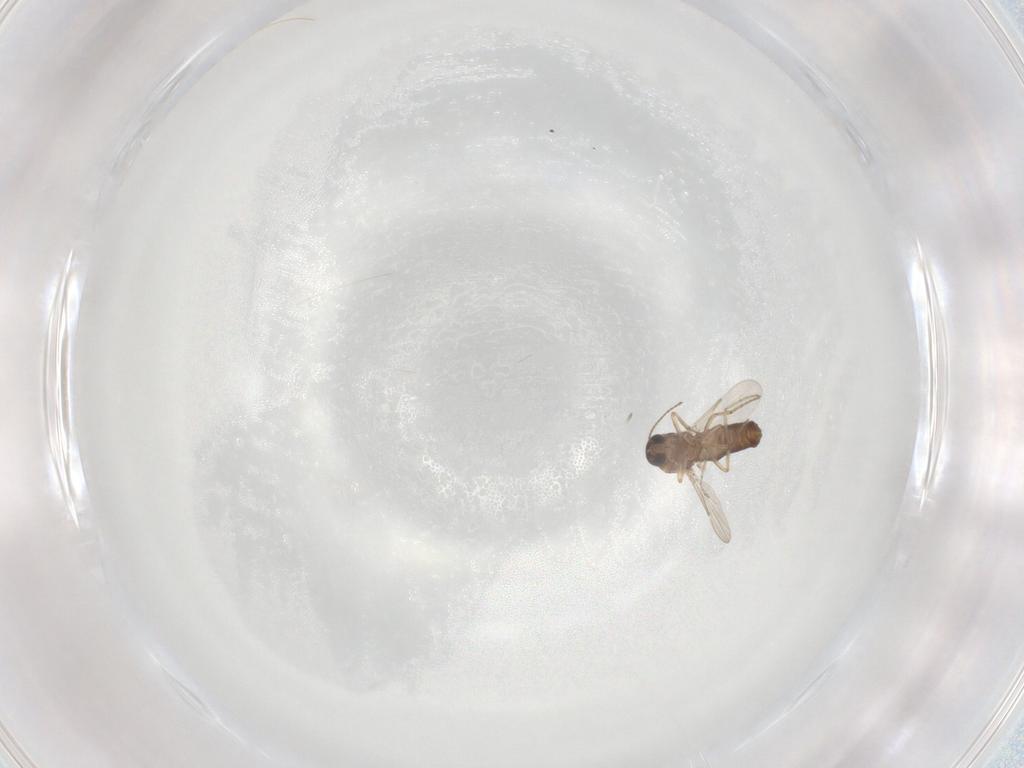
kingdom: Animalia
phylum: Arthropoda
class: Insecta
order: Diptera
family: Ceratopogonidae
